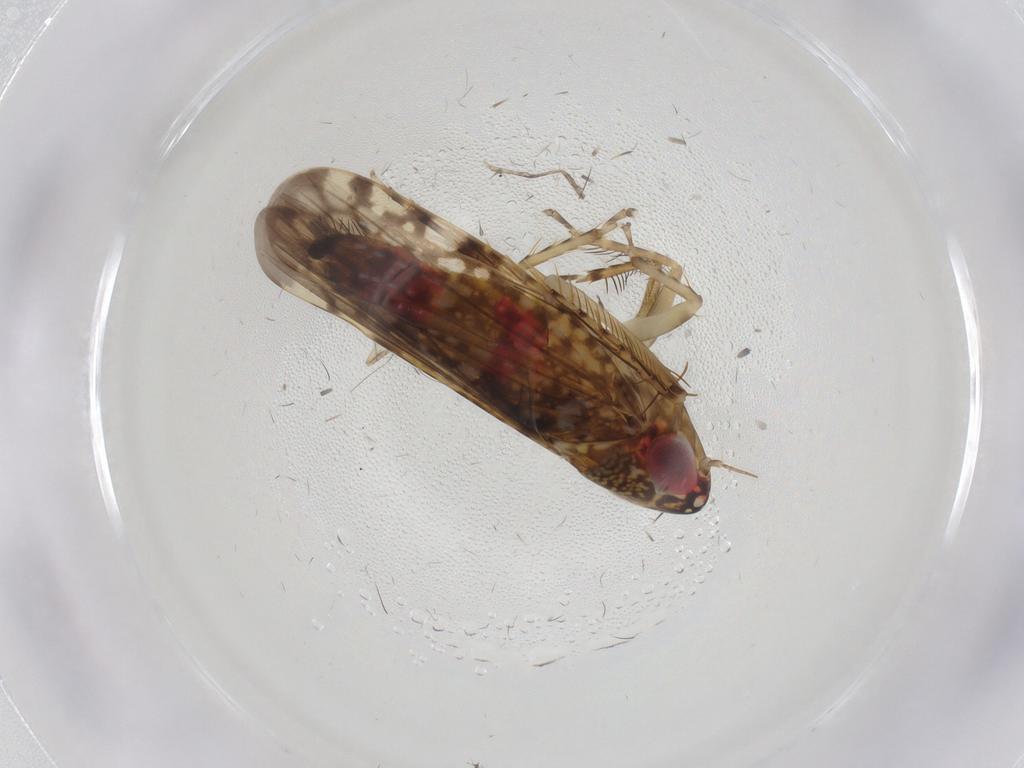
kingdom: Animalia
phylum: Arthropoda
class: Insecta
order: Hemiptera
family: Cicadellidae
